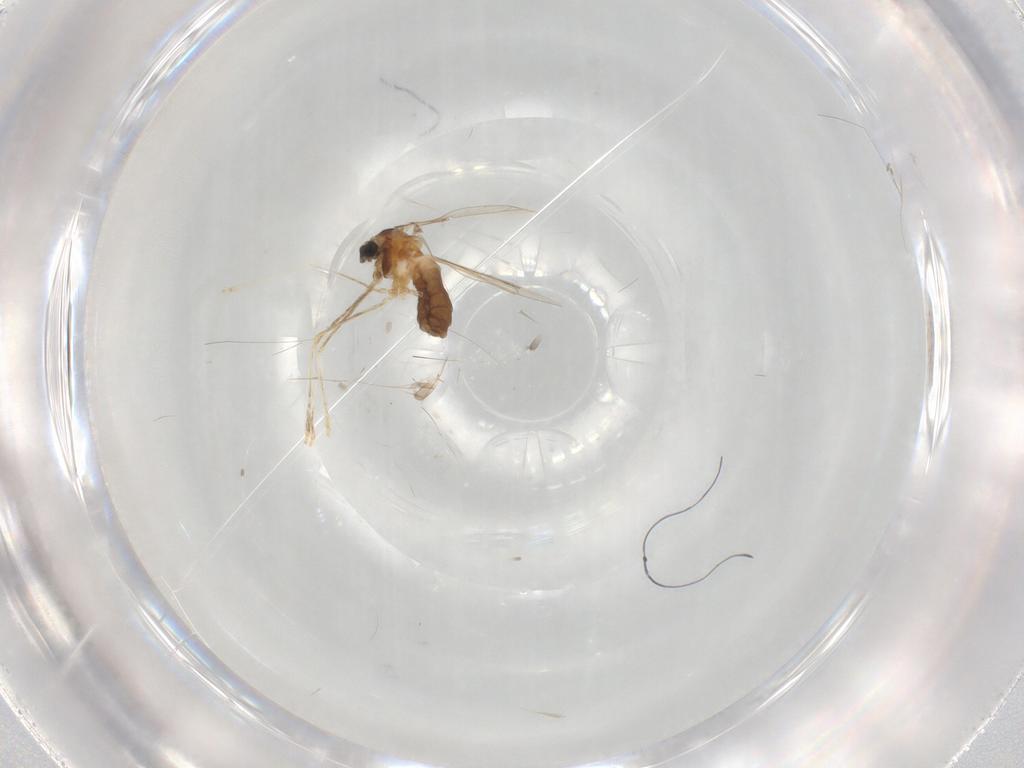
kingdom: Animalia
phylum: Arthropoda
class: Insecta
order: Diptera
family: Cecidomyiidae
